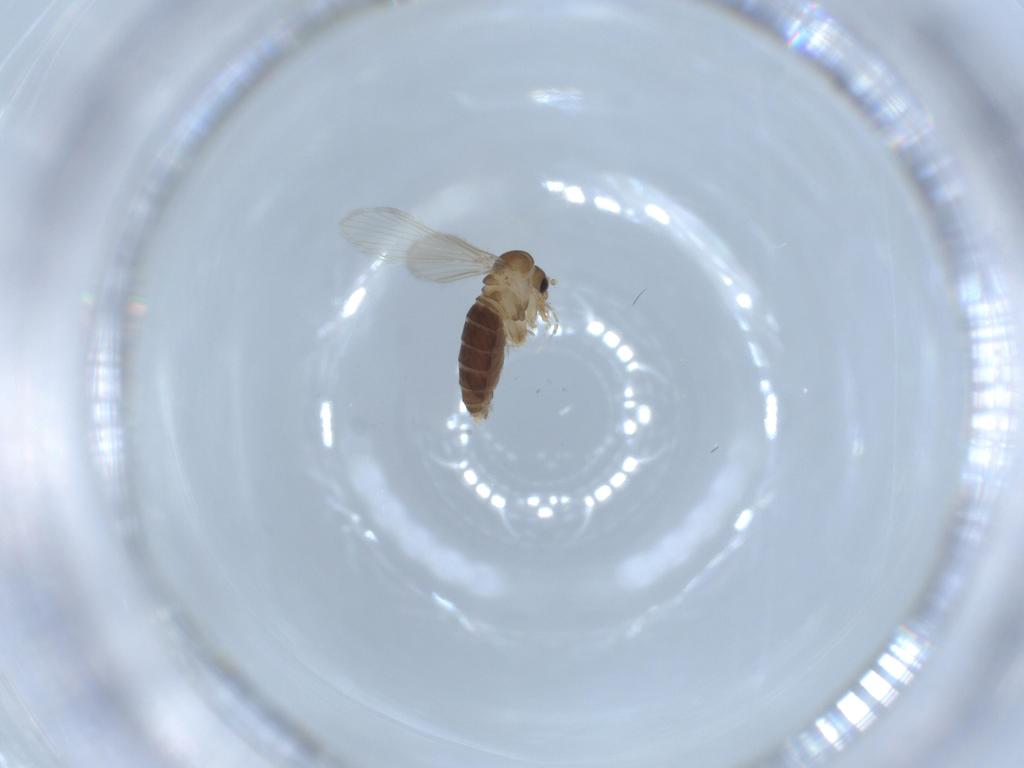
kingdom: Animalia
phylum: Arthropoda
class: Insecta
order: Diptera
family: Psychodidae
